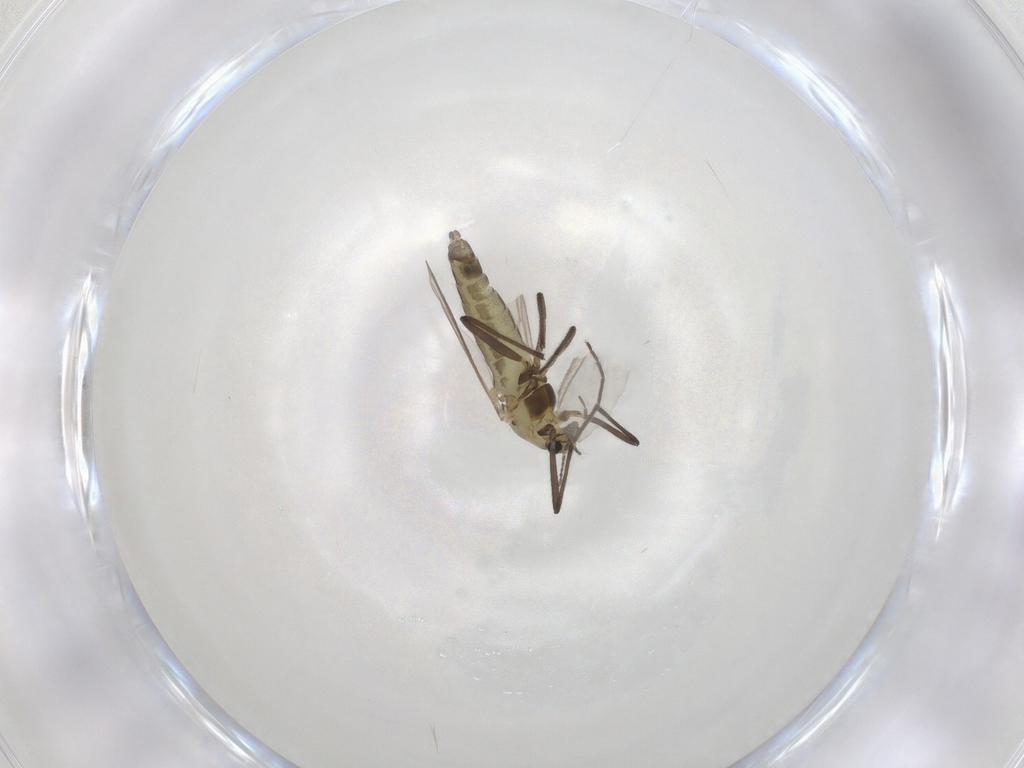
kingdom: Animalia
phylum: Arthropoda
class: Insecta
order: Diptera
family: Chironomidae
